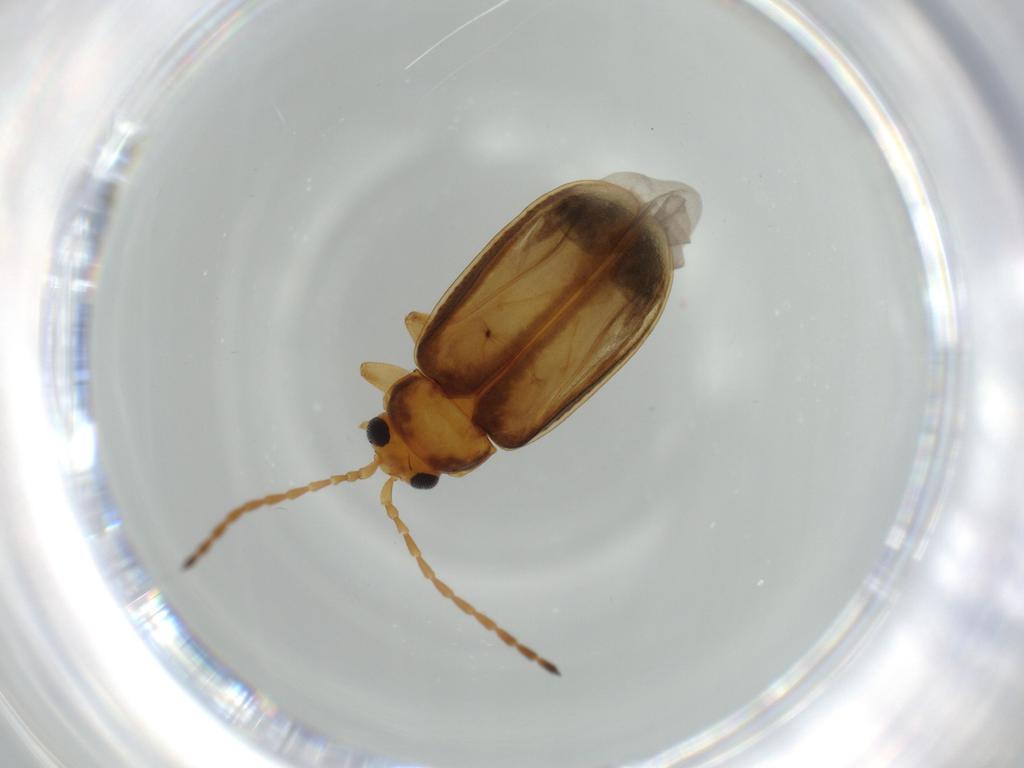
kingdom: Animalia
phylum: Arthropoda
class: Insecta
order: Coleoptera
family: Chrysomelidae
